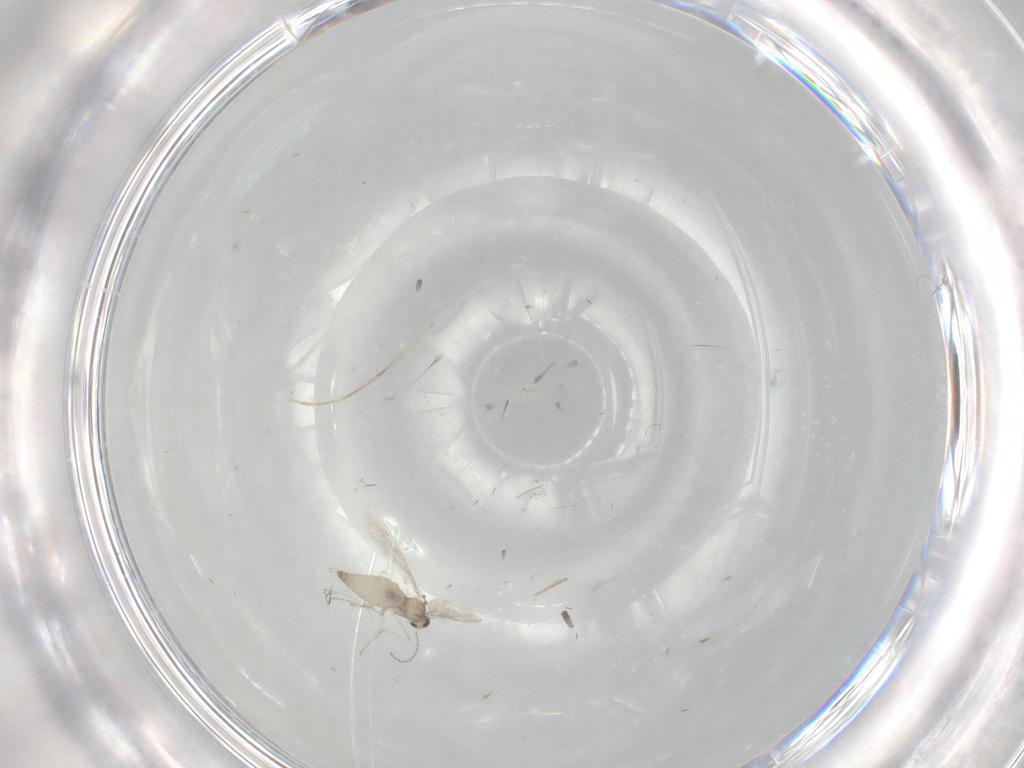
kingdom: Animalia
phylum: Arthropoda
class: Insecta
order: Diptera
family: Cecidomyiidae
